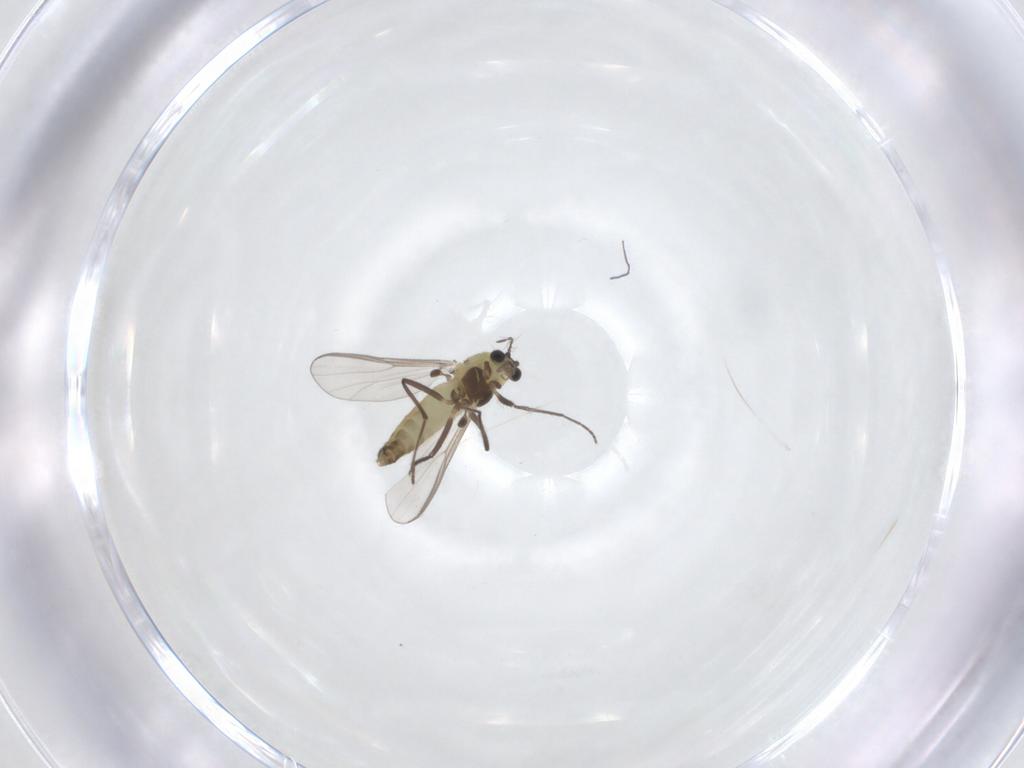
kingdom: Animalia
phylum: Arthropoda
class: Insecta
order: Diptera
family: Chironomidae
